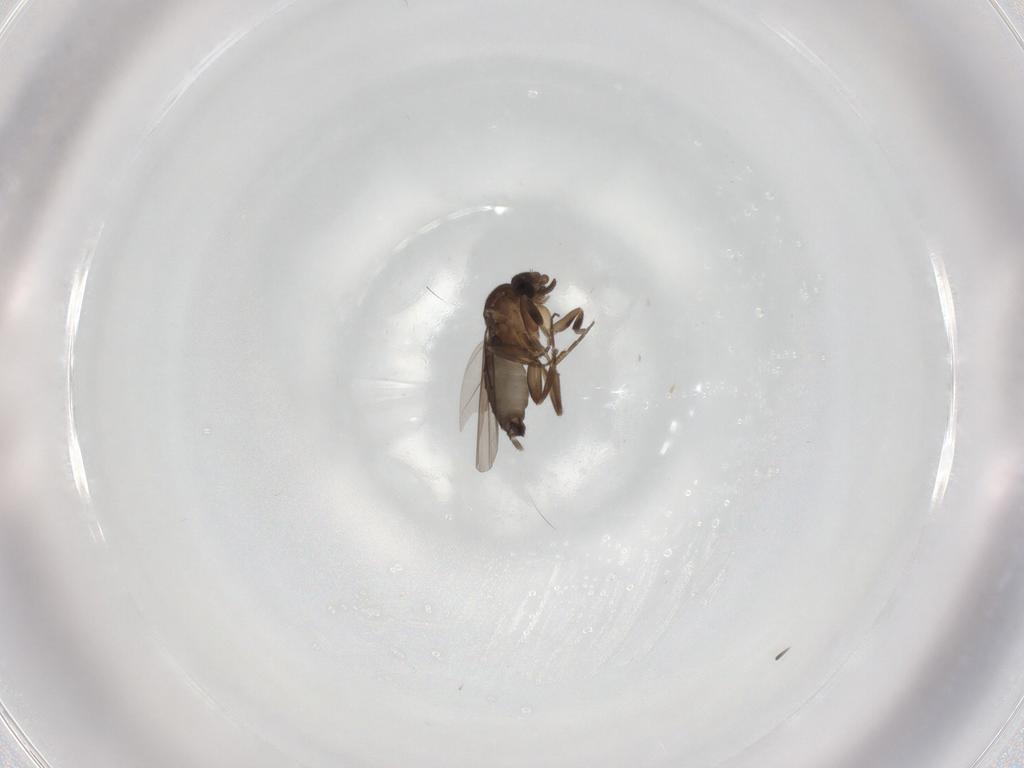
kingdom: Animalia
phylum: Arthropoda
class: Insecta
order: Diptera
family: Phoridae
